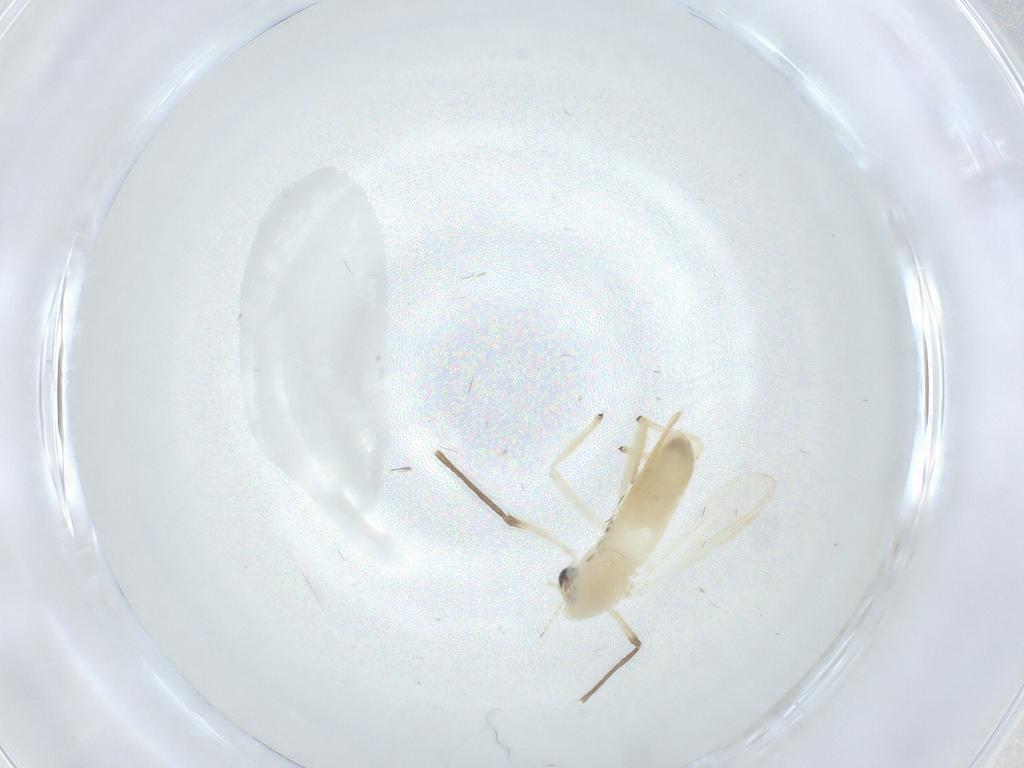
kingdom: Animalia
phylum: Arthropoda
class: Insecta
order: Diptera
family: Chironomidae
